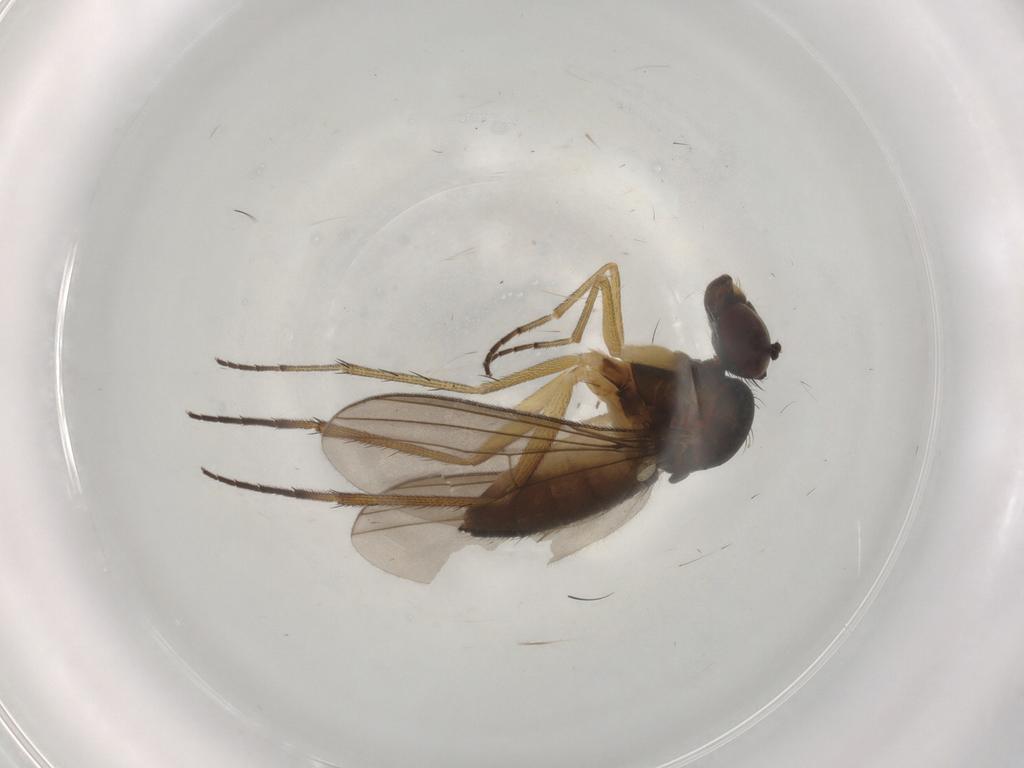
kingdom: Animalia
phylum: Arthropoda
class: Insecta
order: Diptera
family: Dolichopodidae
